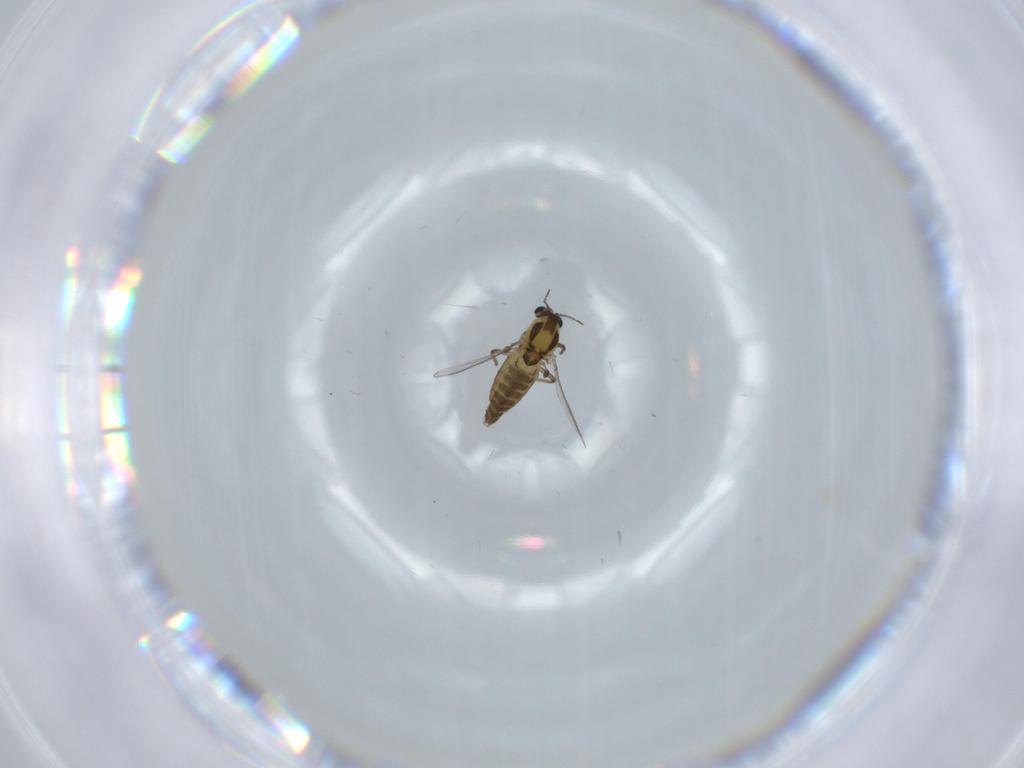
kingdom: Animalia
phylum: Arthropoda
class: Insecta
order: Diptera
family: Chironomidae
